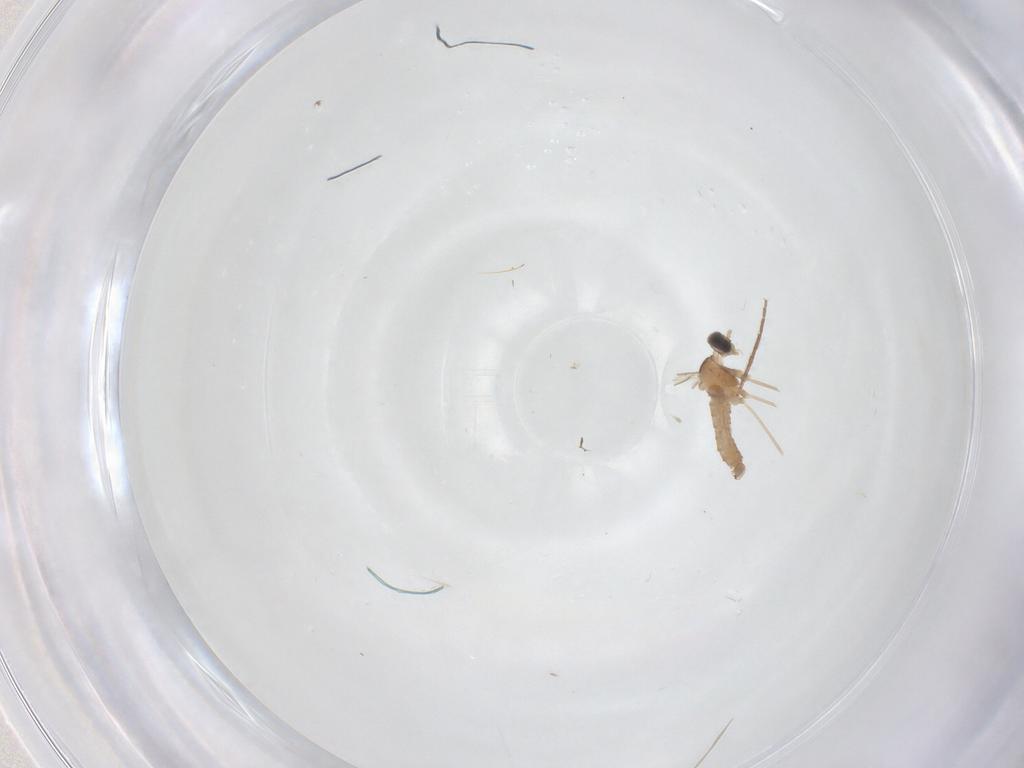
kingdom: Animalia
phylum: Arthropoda
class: Insecta
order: Diptera
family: Cecidomyiidae
